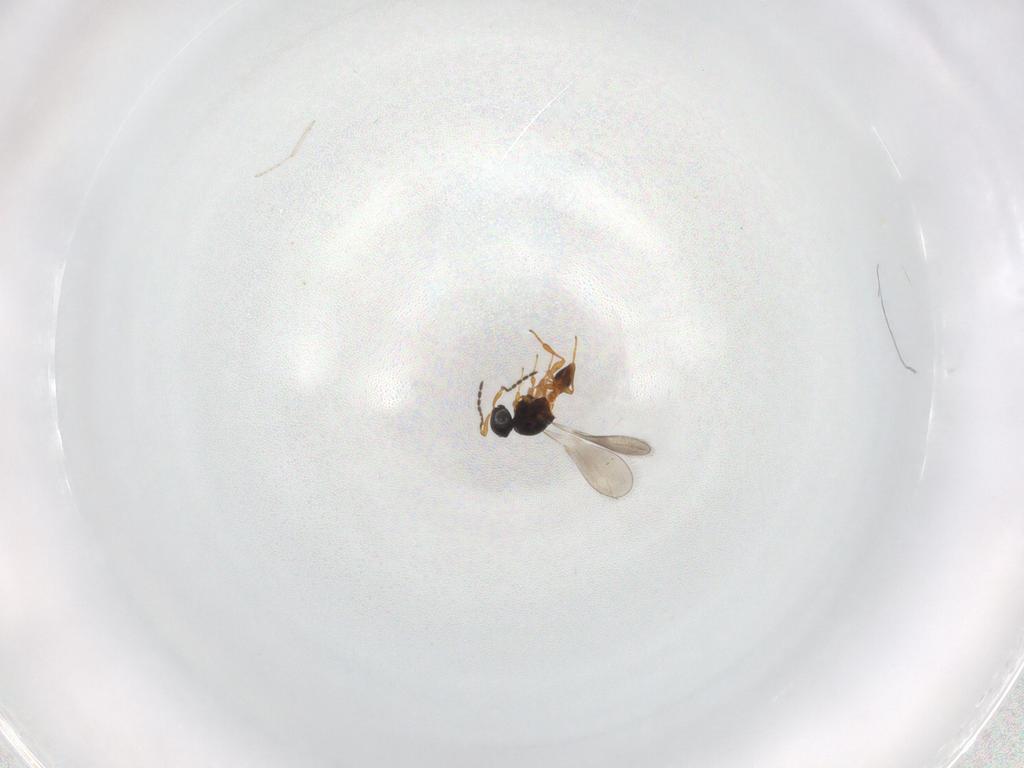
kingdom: Animalia
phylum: Arthropoda
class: Insecta
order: Hymenoptera
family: Platygastridae
